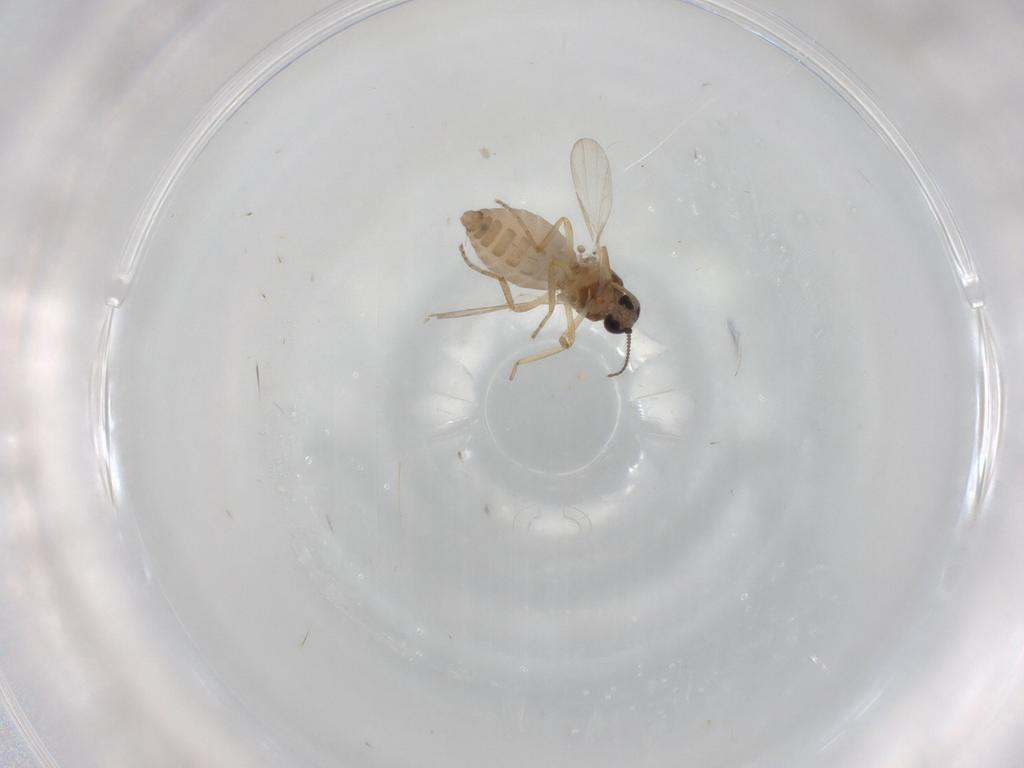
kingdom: Animalia
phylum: Arthropoda
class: Insecta
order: Diptera
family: Ceratopogonidae
